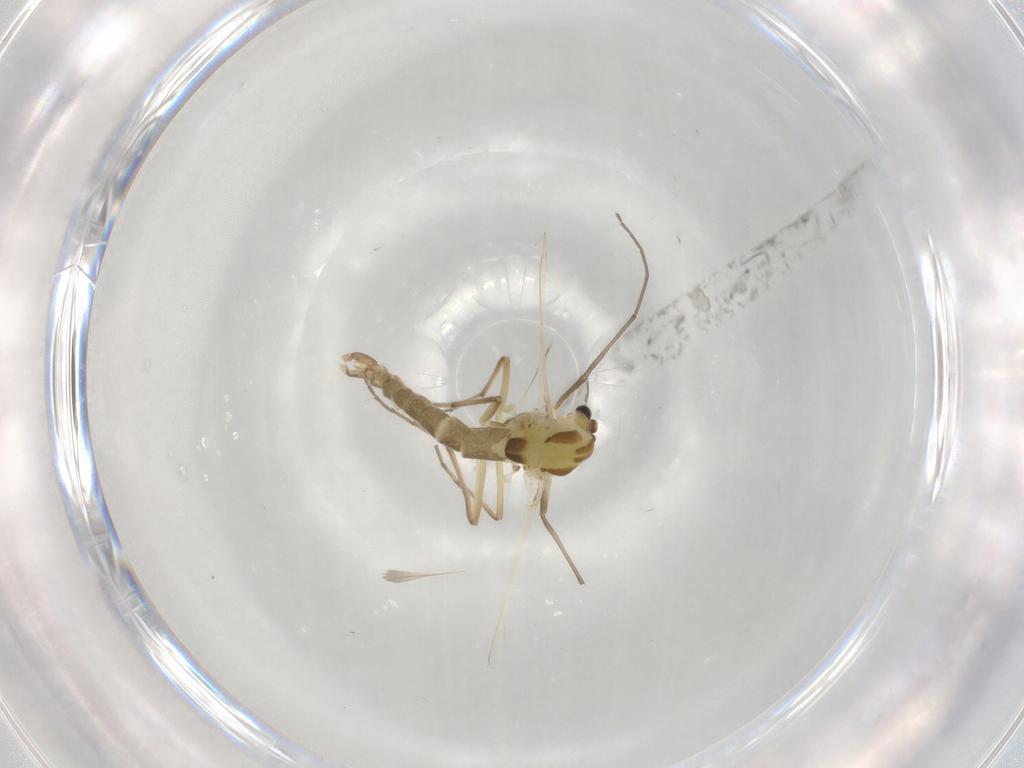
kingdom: Animalia
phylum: Arthropoda
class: Insecta
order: Diptera
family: Chironomidae
